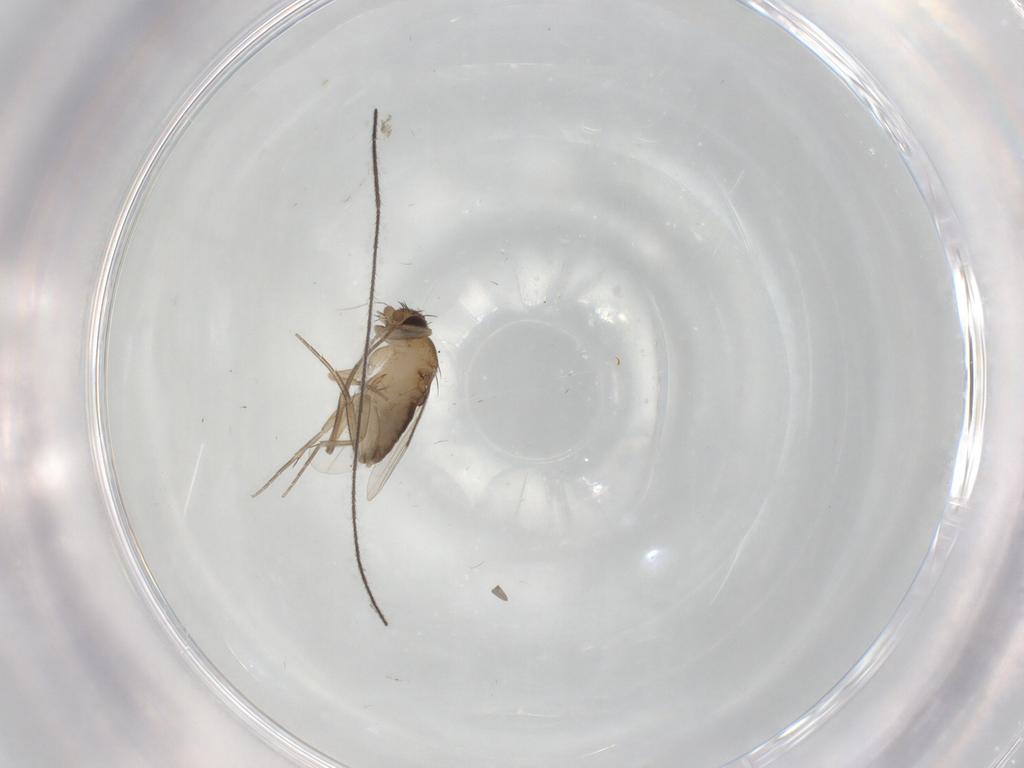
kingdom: Animalia
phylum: Arthropoda
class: Insecta
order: Diptera
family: Phoridae
